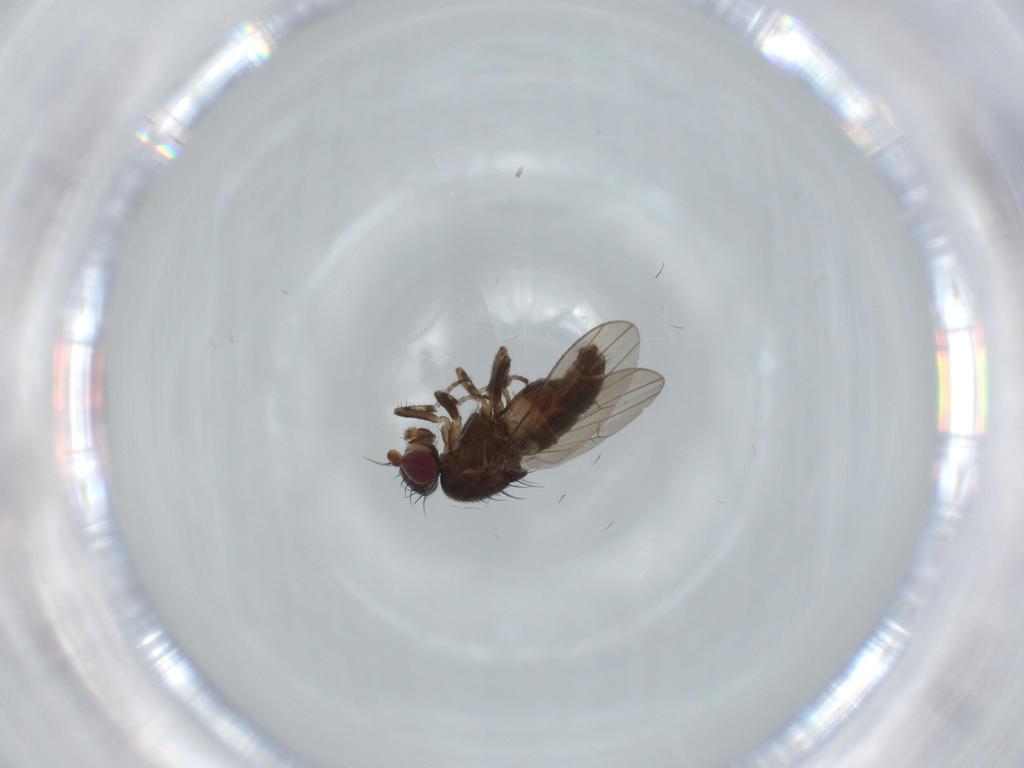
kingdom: Animalia
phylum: Arthropoda
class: Insecta
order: Diptera
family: Heleomyzidae
